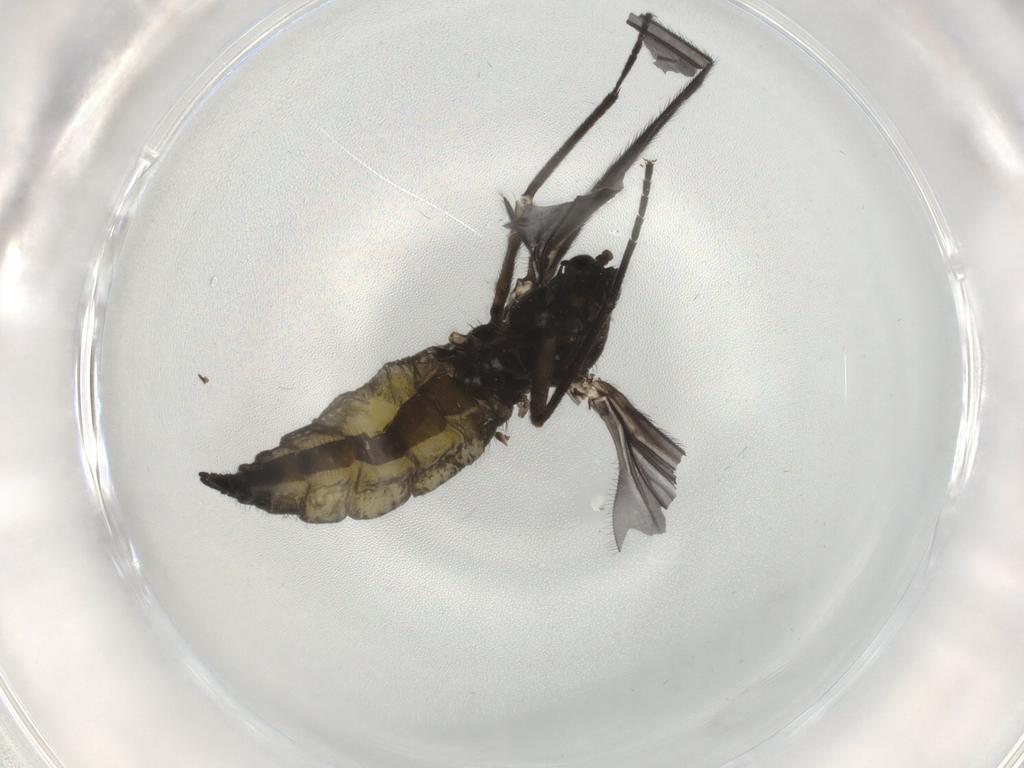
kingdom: Animalia
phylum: Arthropoda
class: Insecta
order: Diptera
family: Sciaridae
